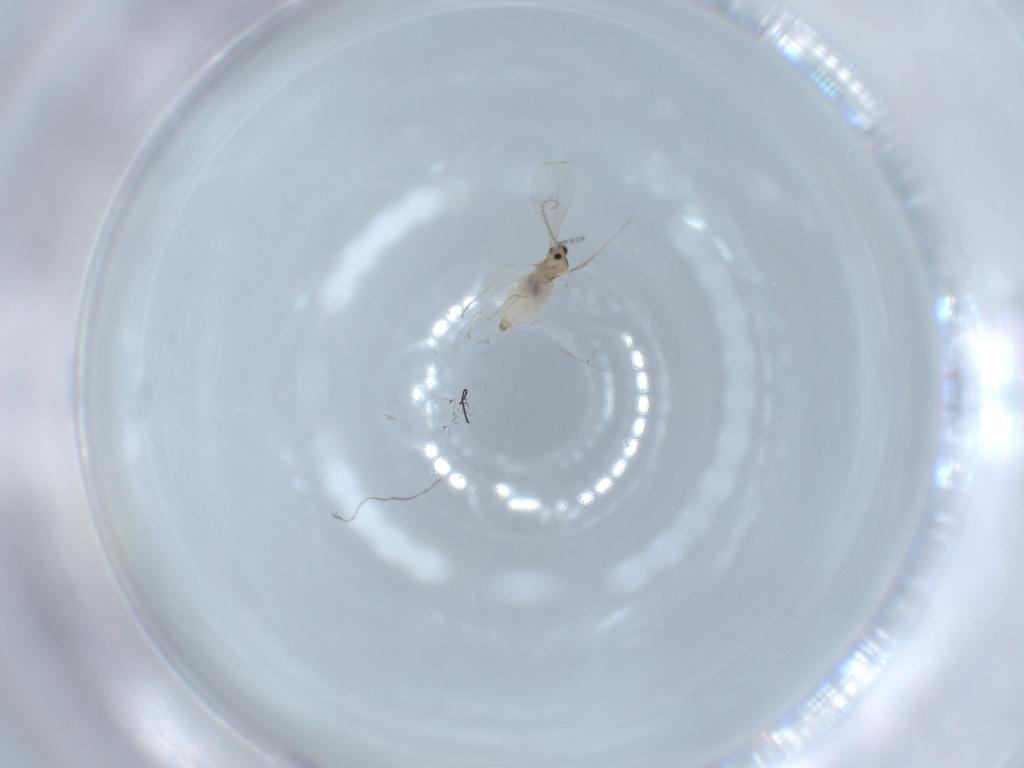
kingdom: Animalia
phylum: Arthropoda
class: Insecta
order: Diptera
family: Cecidomyiidae
